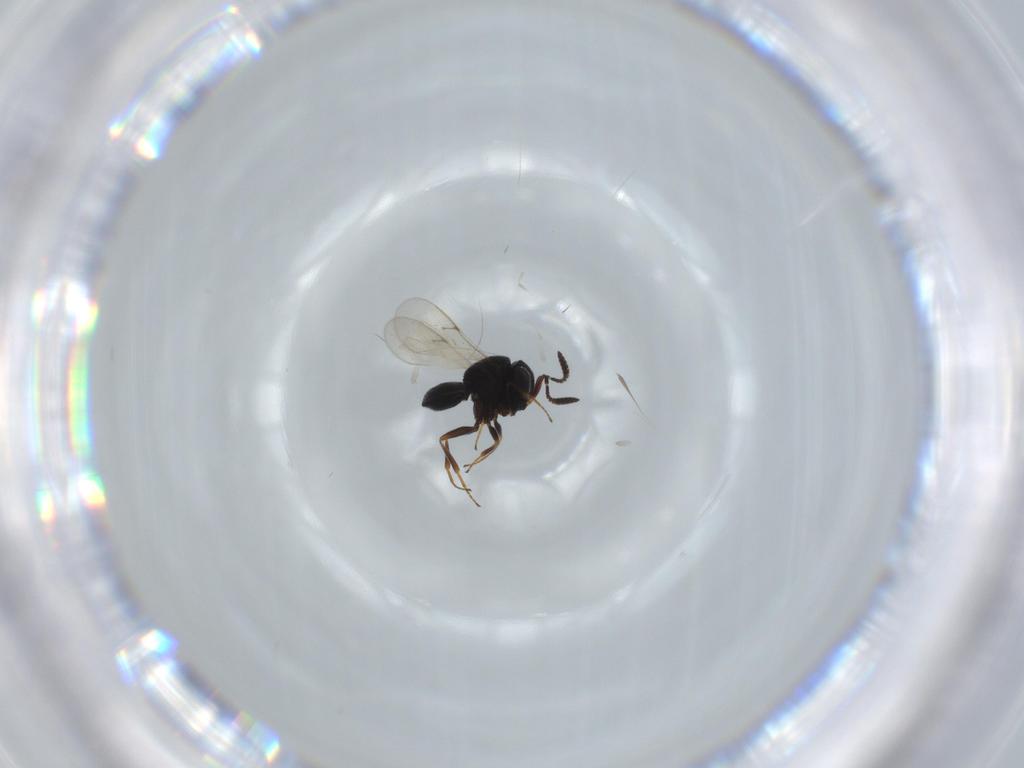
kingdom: Animalia
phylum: Arthropoda
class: Insecta
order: Hymenoptera
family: Scelionidae
